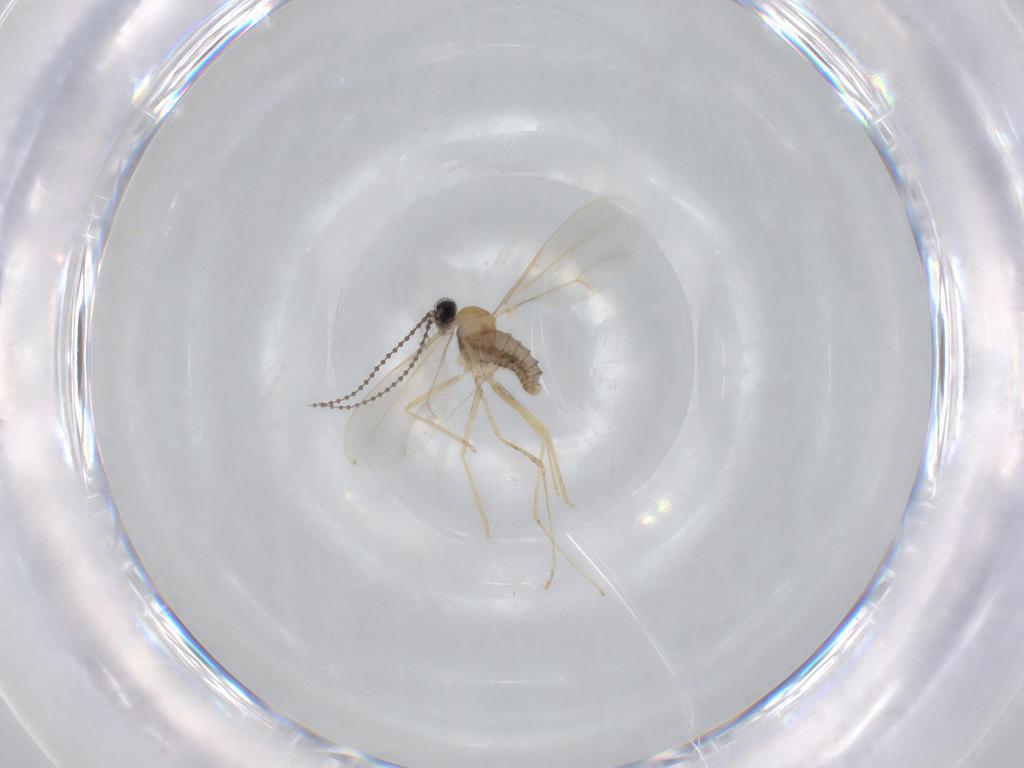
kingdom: Animalia
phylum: Arthropoda
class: Insecta
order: Diptera
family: Cecidomyiidae
